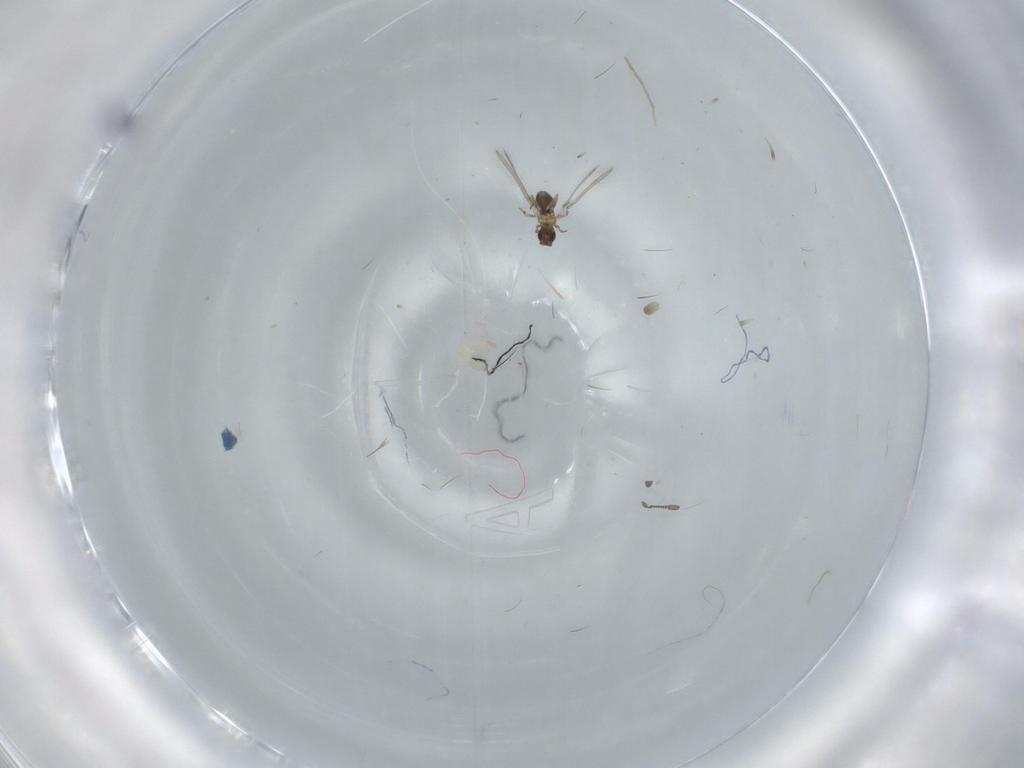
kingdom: Animalia
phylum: Arthropoda
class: Insecta
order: Hymenoptera
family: Mymaridae
